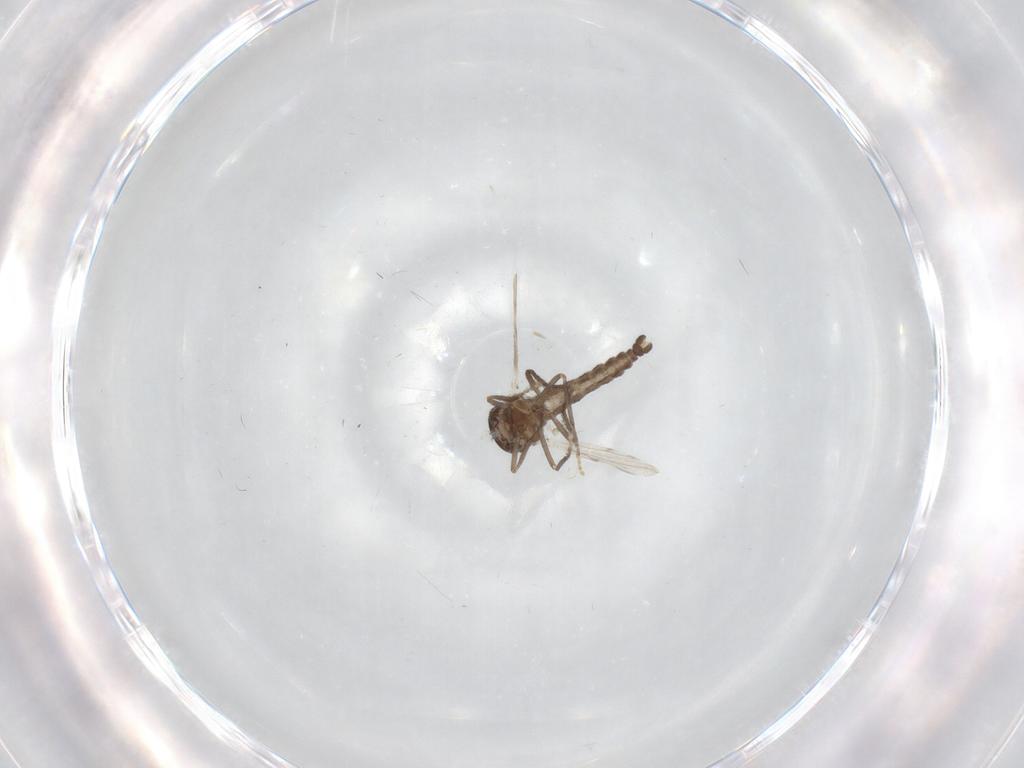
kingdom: Animalia
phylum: Arthropoda
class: Insecta
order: Diptera
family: Ceratopogonidae
